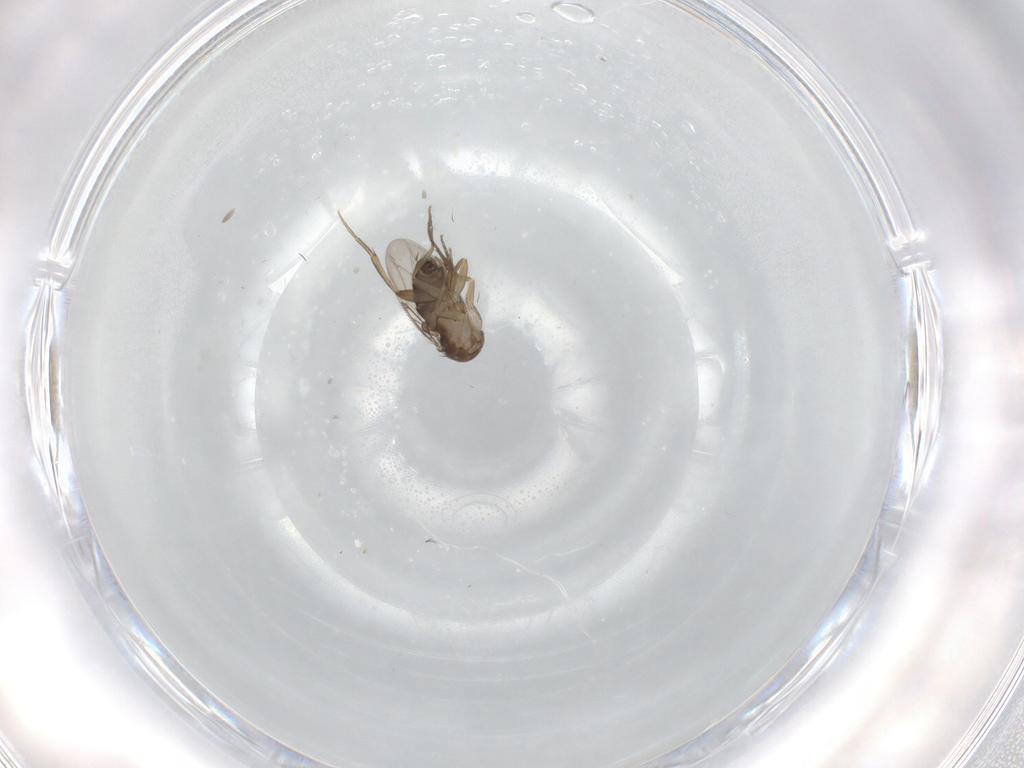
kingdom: Animalia
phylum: Arthropoda
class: Insecta
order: Diptera
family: Phoridae
